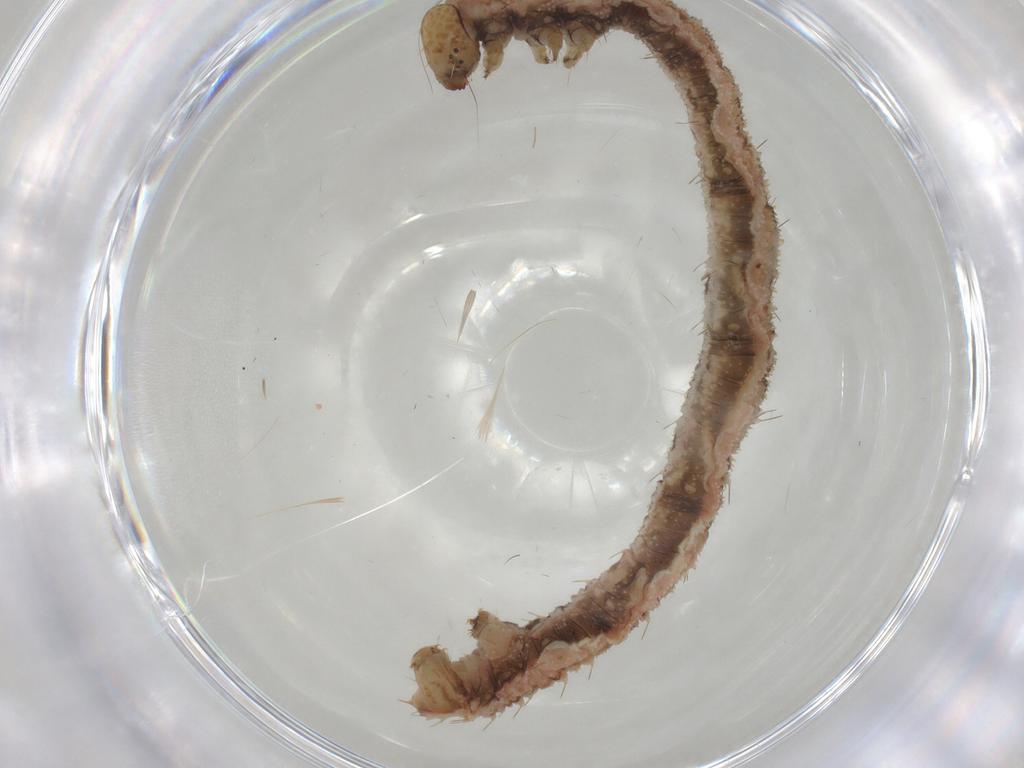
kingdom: Animalia
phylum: Arthropoda
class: Insecta
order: Lepidoptera
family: Geometridae
